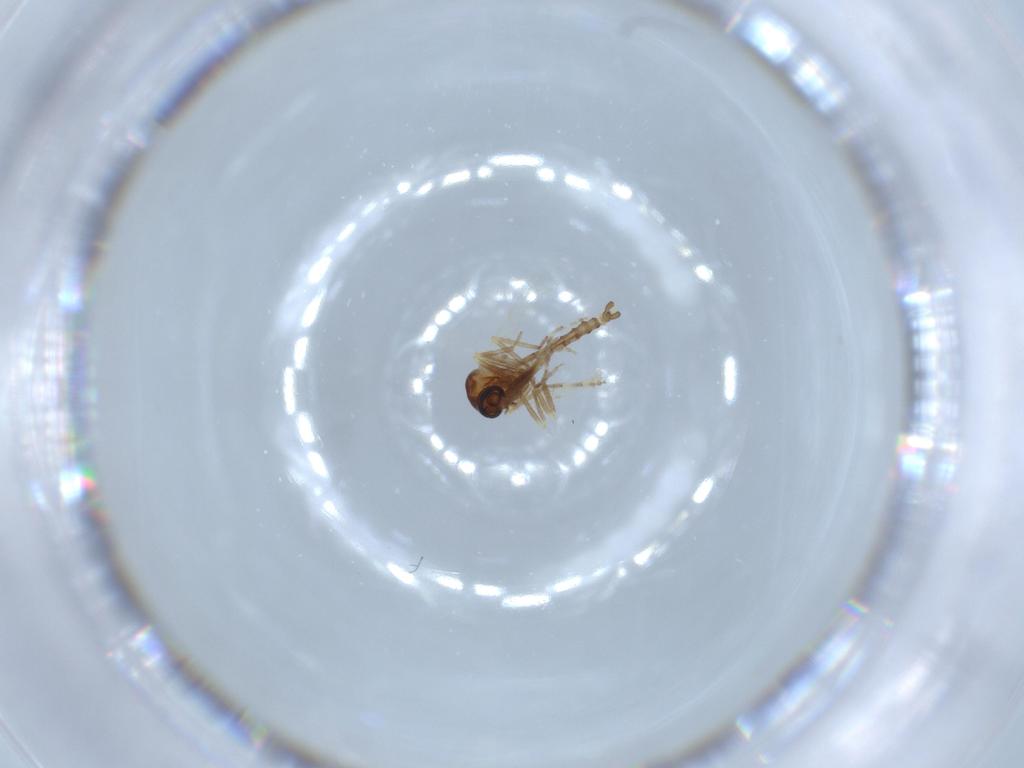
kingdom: Animalia
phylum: Arthropoda
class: Insecta
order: Diptera
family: Ceratopogonidae
